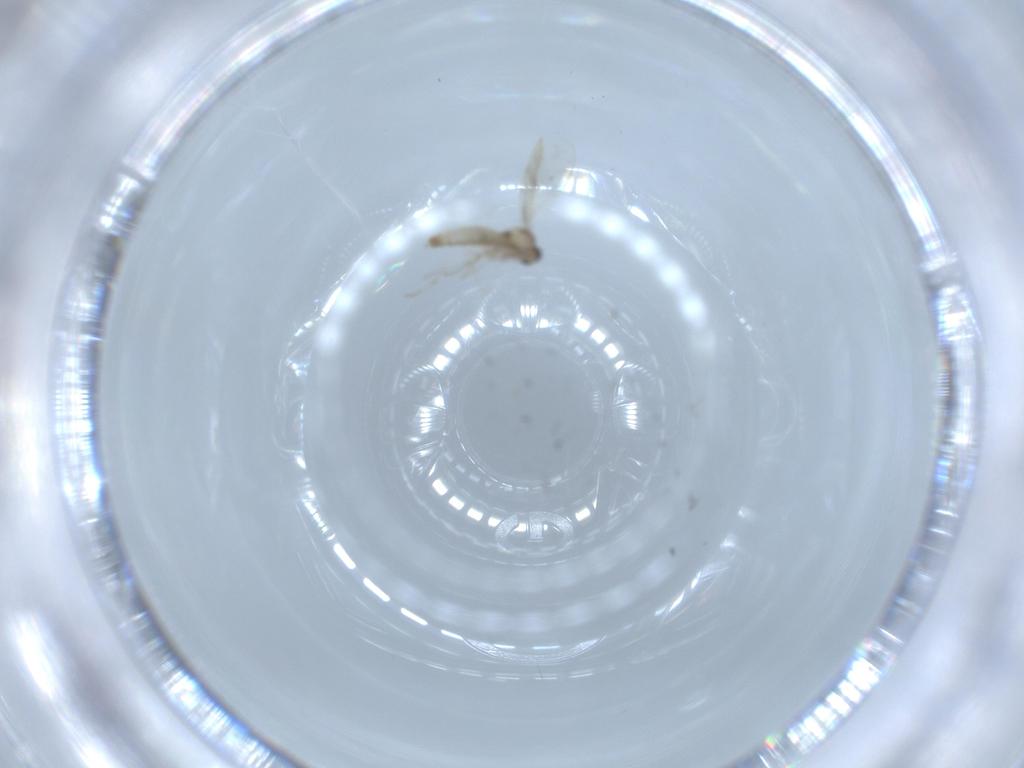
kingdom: Animalia
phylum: Arthropoda
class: Insecta
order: Diptera
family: Cecidomyiidae
